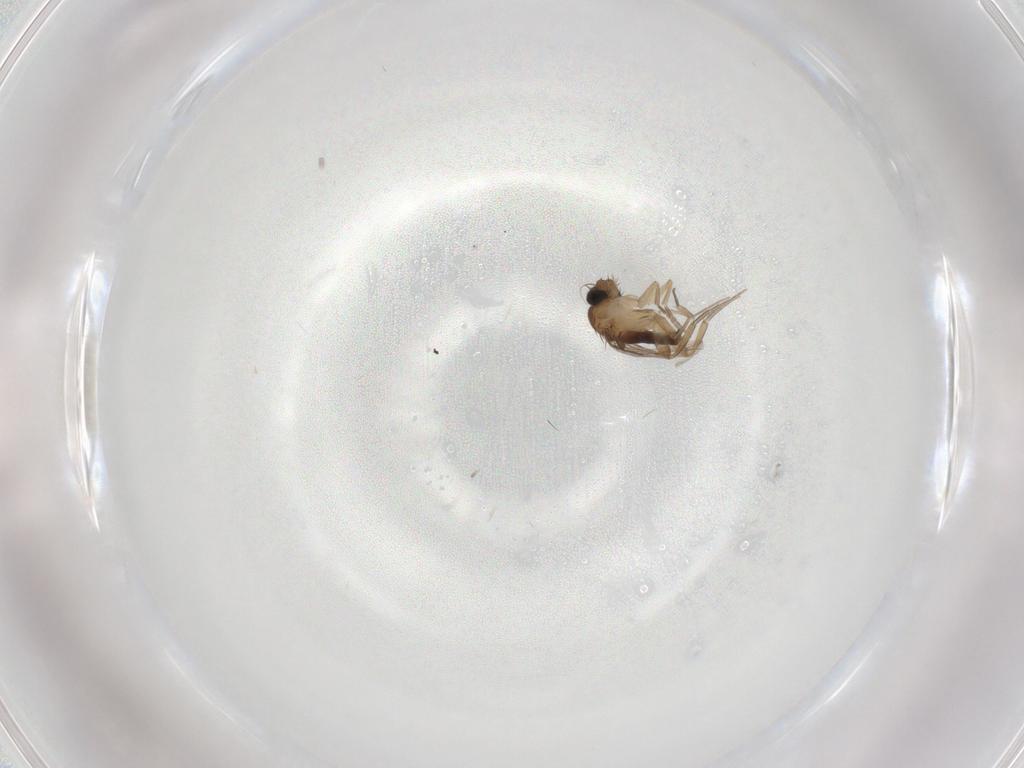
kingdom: Animalia
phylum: Arthropoda
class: Insecta
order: Diptera
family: Phoridae
